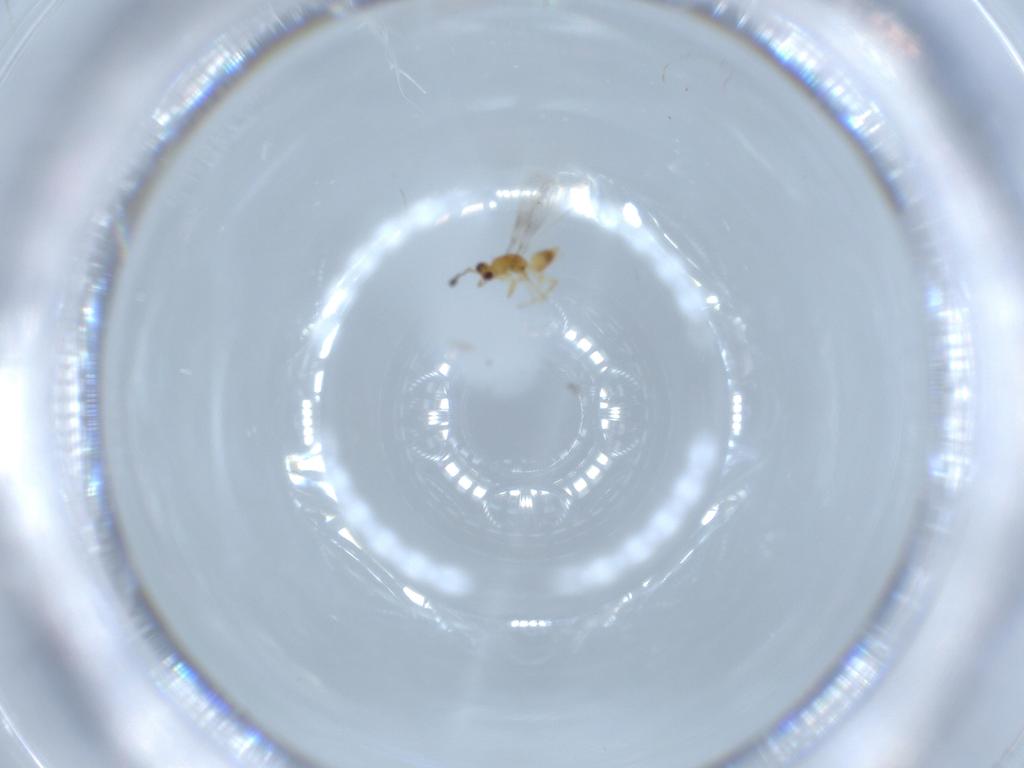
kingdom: Animalia
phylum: Arthropoda
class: Insecta
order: Hymenoptera
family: Mymaridae
